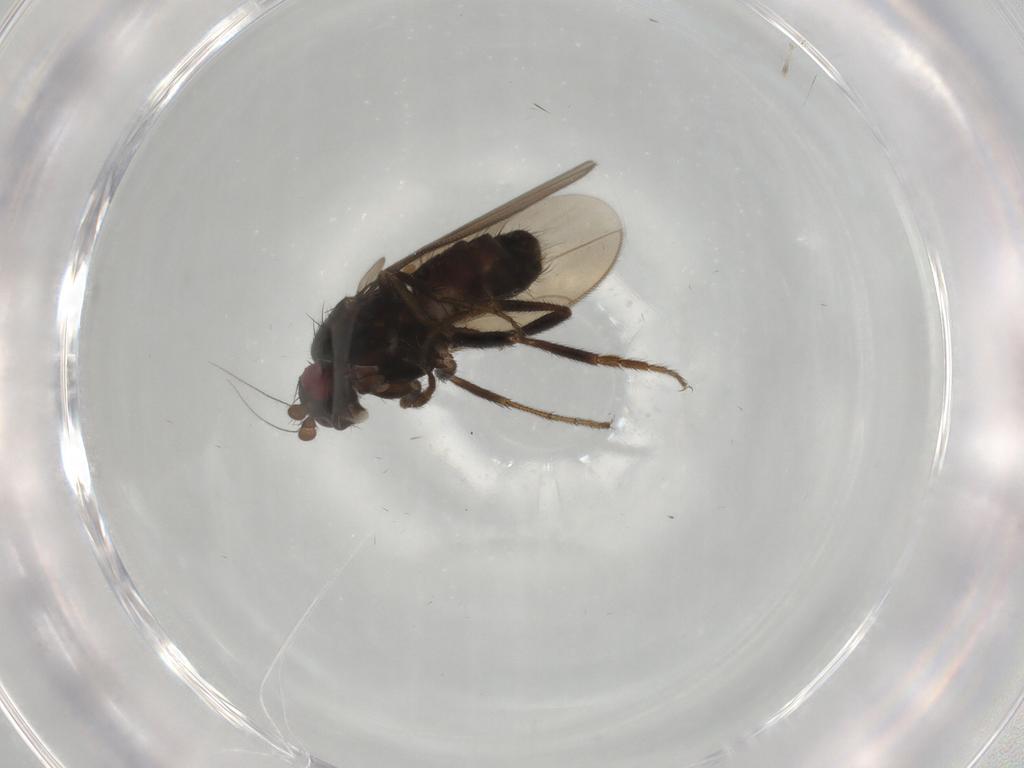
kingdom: Animalia
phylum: Arthropoda
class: Insecta
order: Diptera
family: Sphaeroceridae
